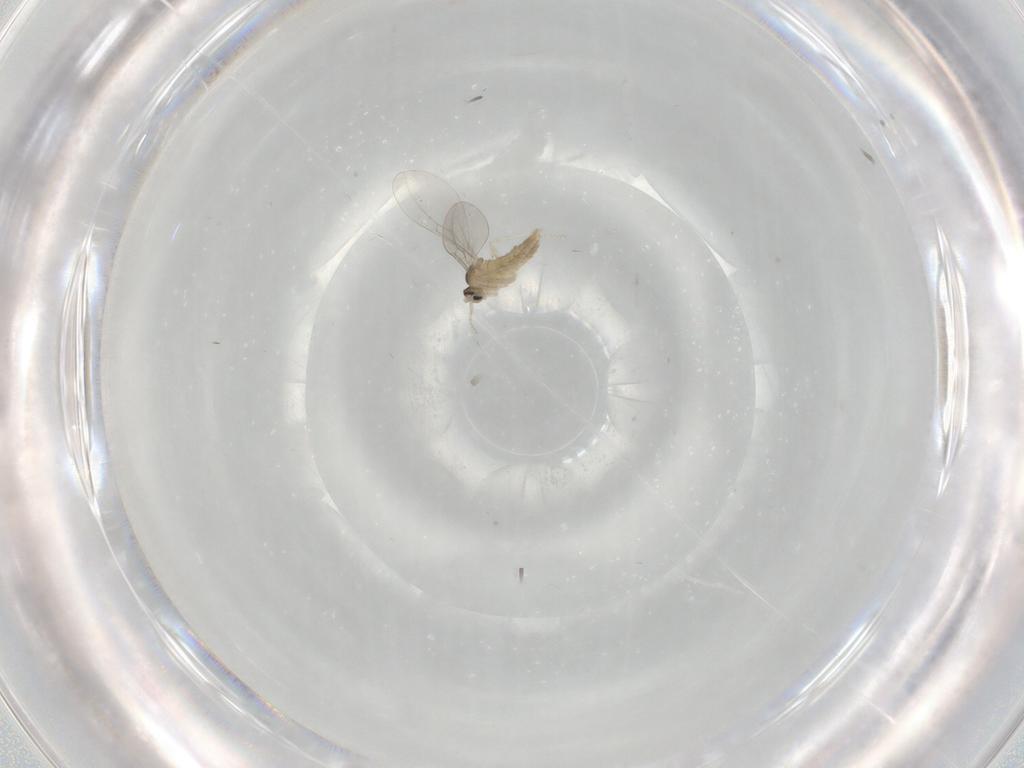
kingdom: Animalia
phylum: Arthropoda
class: Insecta
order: Diptera
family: Cecidomyiidae
